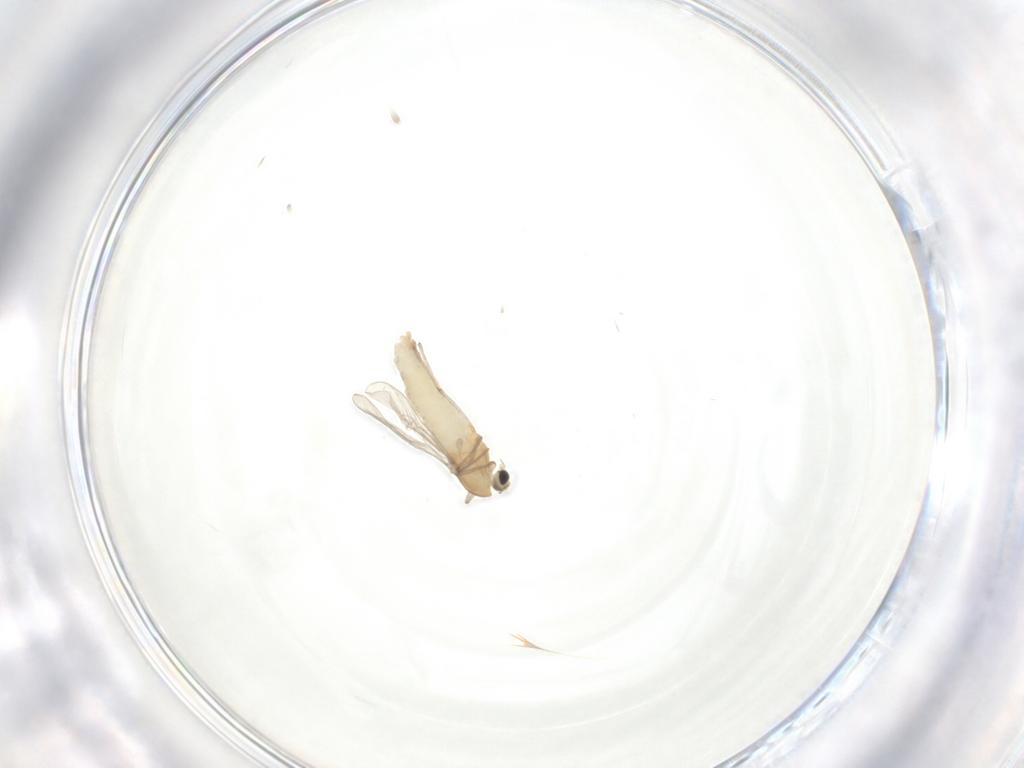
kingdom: Animalia
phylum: Arthropoda
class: Insecta
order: Diptera
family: Chironomidae
